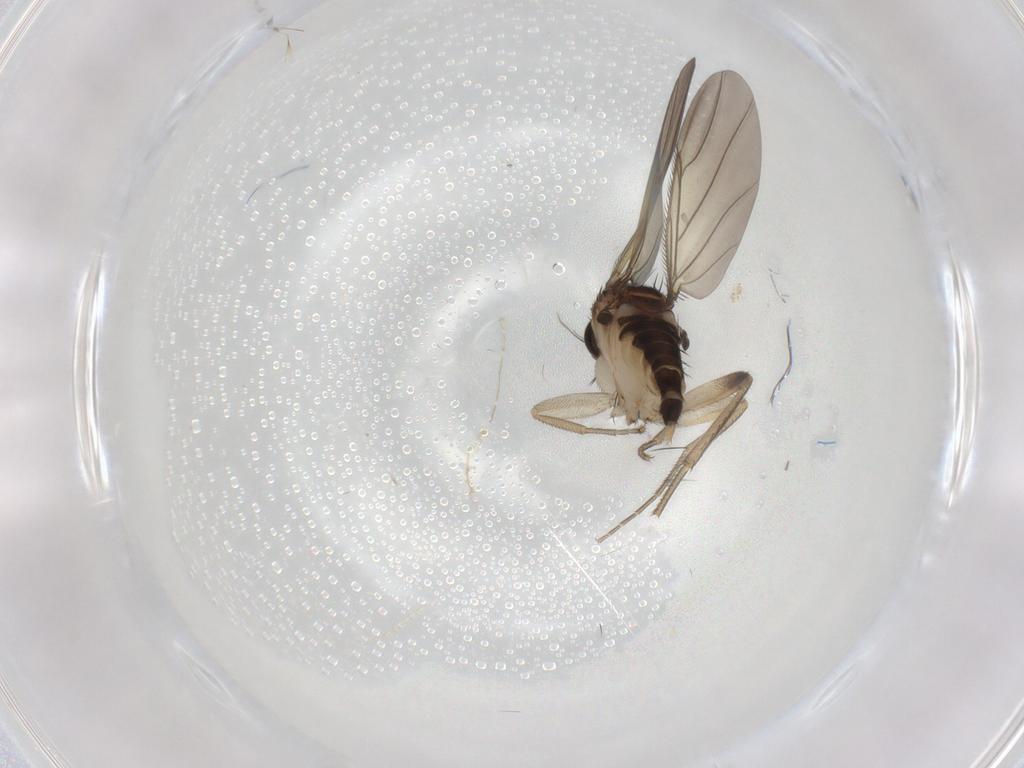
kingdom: Animalia
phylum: Arthropoda
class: Insecta
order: Diptera
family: Phoridae
